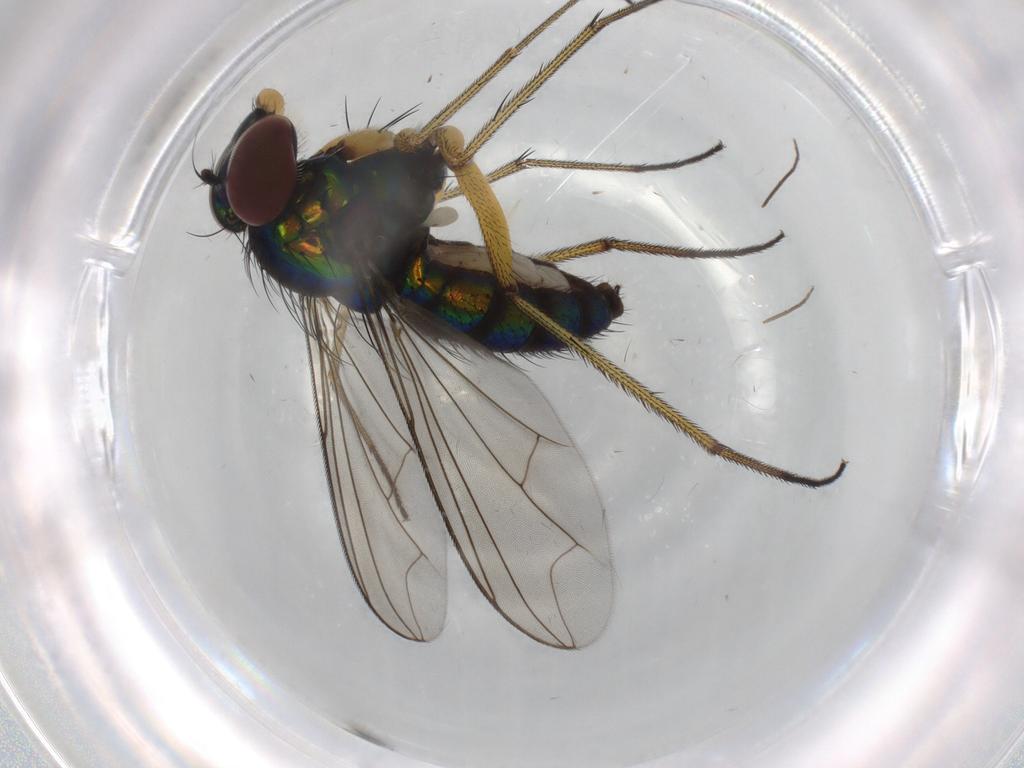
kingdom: Animalia
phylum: Arthropoda
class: Insecta
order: Diptera
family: Dolichopodidae
